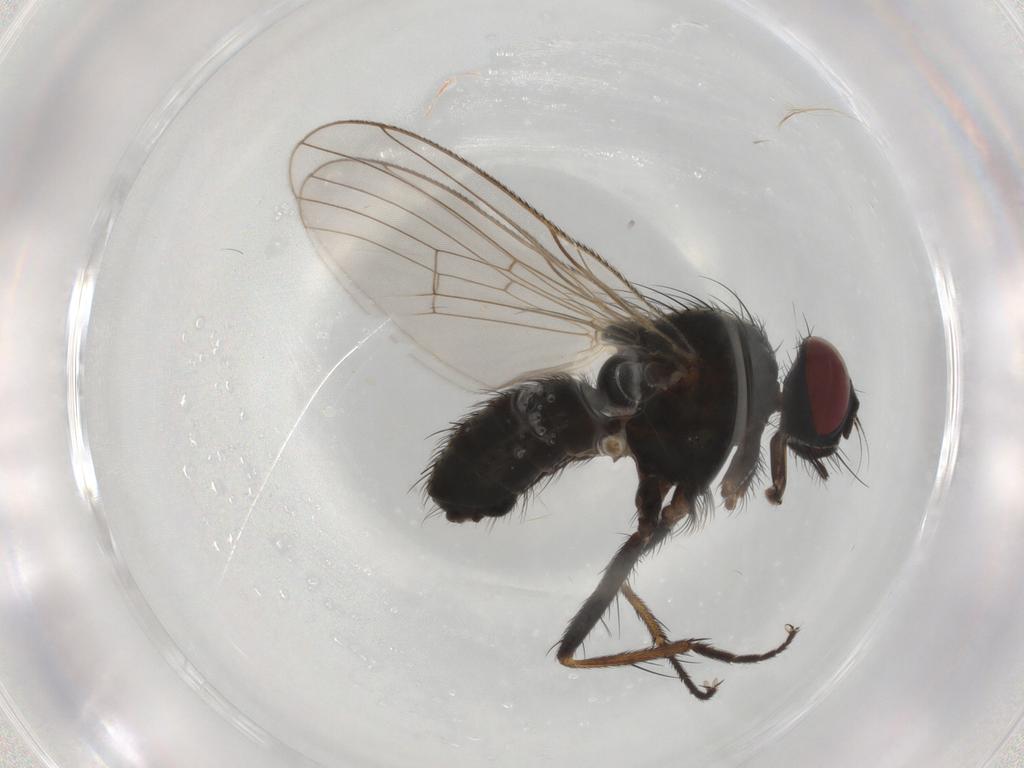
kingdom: Animalia
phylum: Arthropoda
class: Insecta
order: Diptera
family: Muscidae
